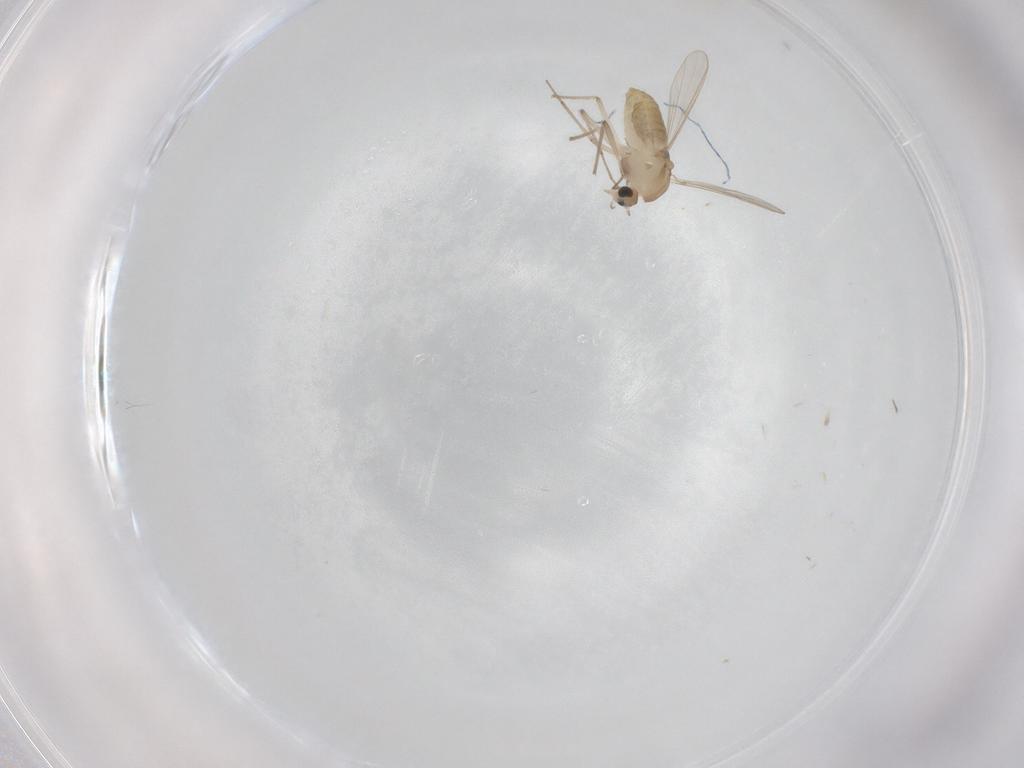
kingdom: Animalia
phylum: Arthropoda
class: Insecta
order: Diptera
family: Chironomidae
